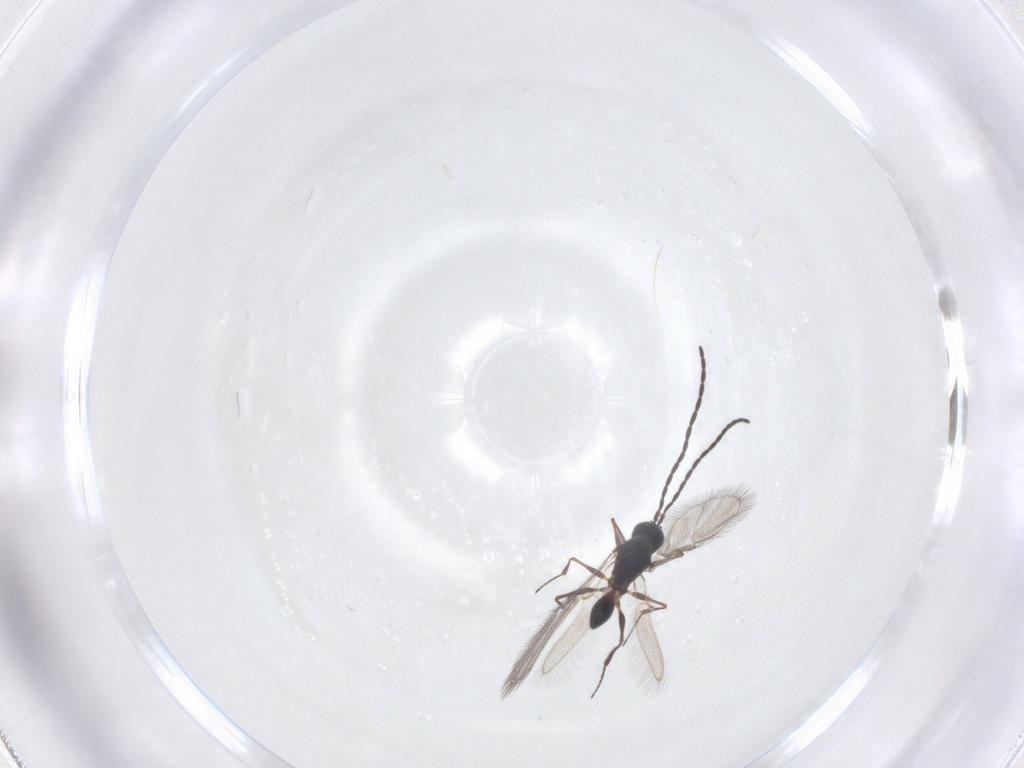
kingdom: Animalia
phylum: Arthropoda
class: Insecta
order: Hymenoptera
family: Figitidae
